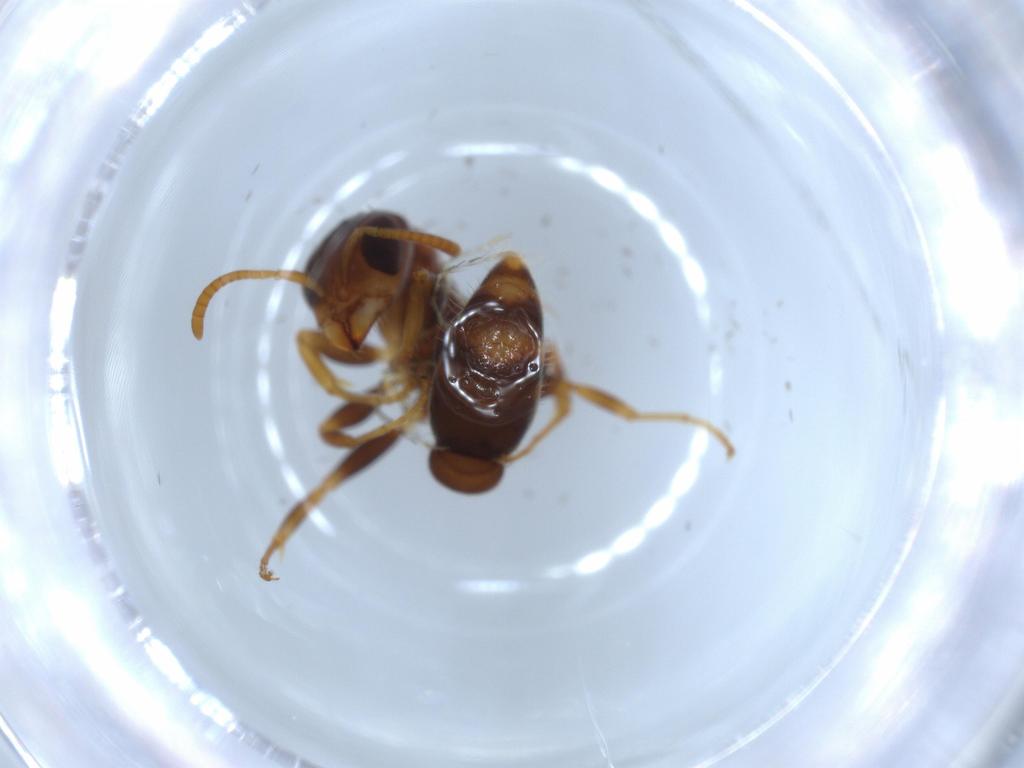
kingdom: Animalia
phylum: Arthropoda
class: Insecta
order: Hymenoptera
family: Formicidae
